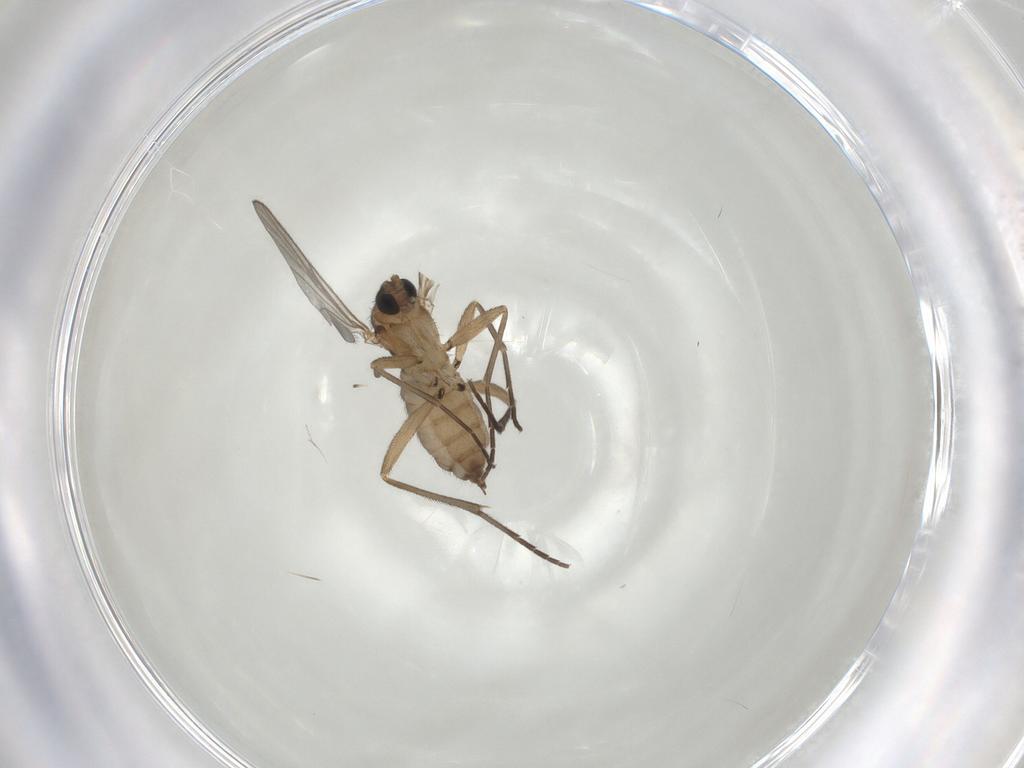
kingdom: Animalia
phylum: Arthropoda
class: Insecta
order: Diptera
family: Sciaridae
